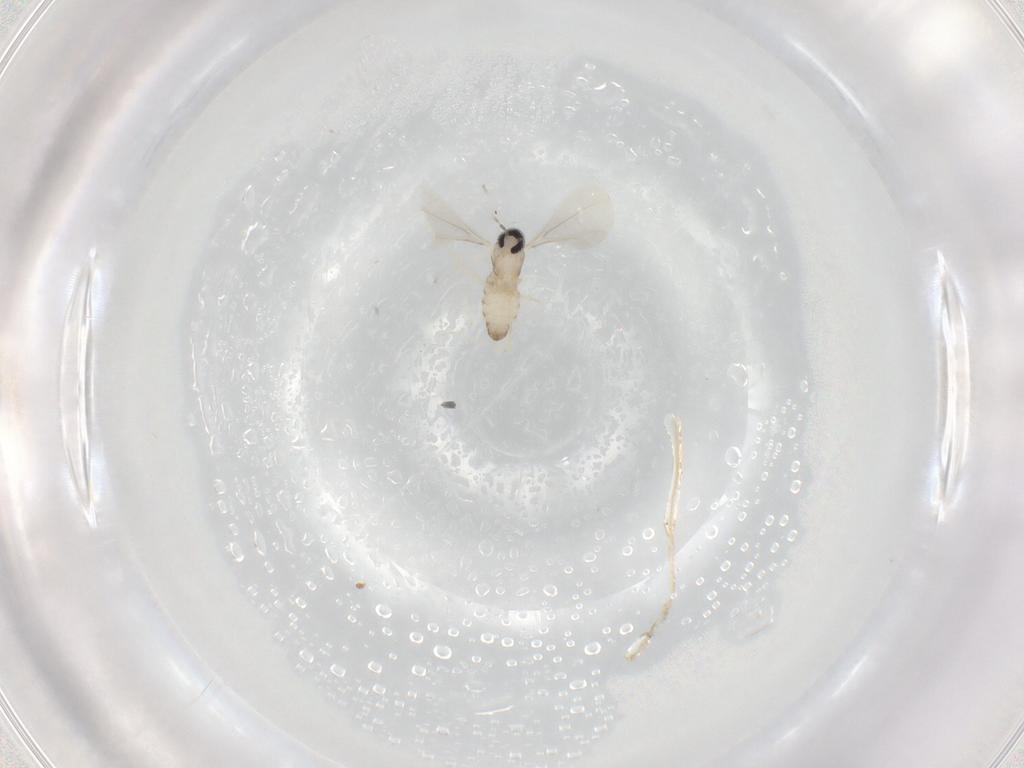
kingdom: Animalia
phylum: Arthropoda
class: Insecta
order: Diptera
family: Cecidomyiidae
